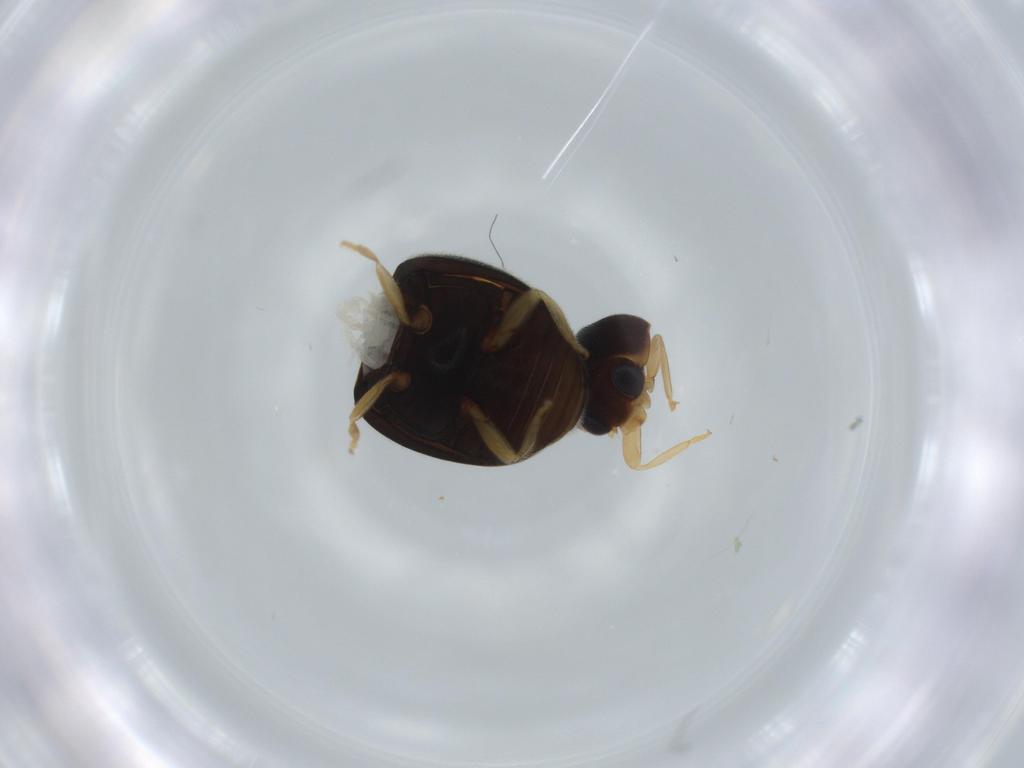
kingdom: Animalia
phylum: Arthropoda
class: Insecta
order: Coleoptera
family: Coccinellidae
